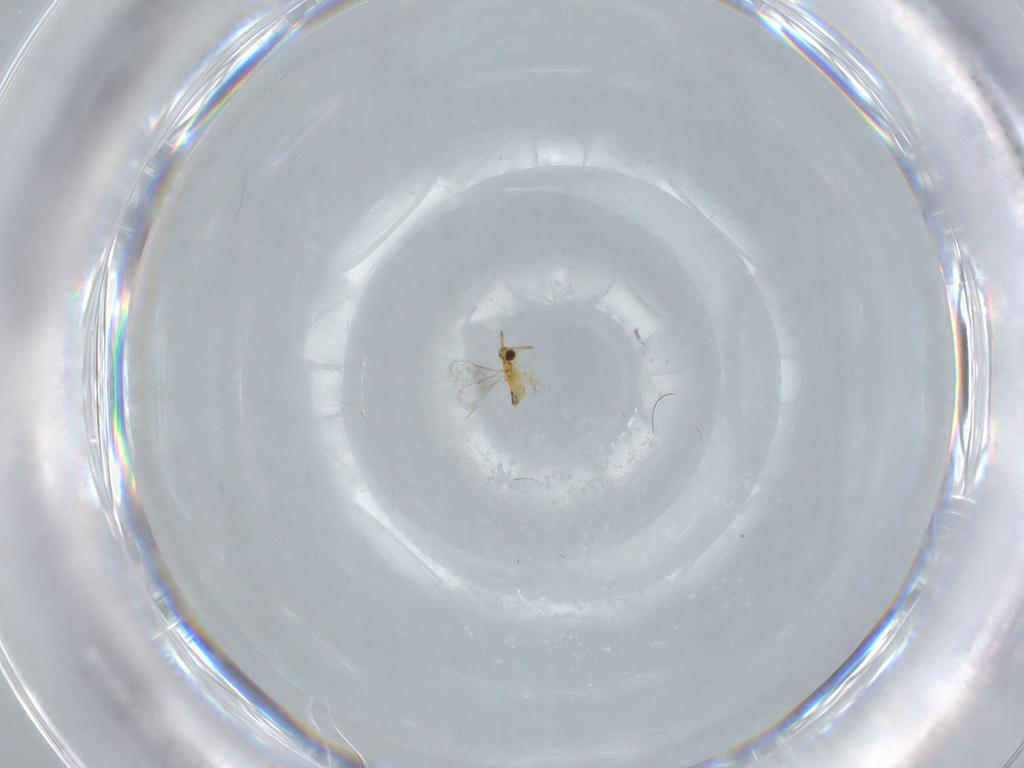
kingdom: Animalia
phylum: Arthropoda
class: Insecta
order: Hymenoptera
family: Aphelinidae
